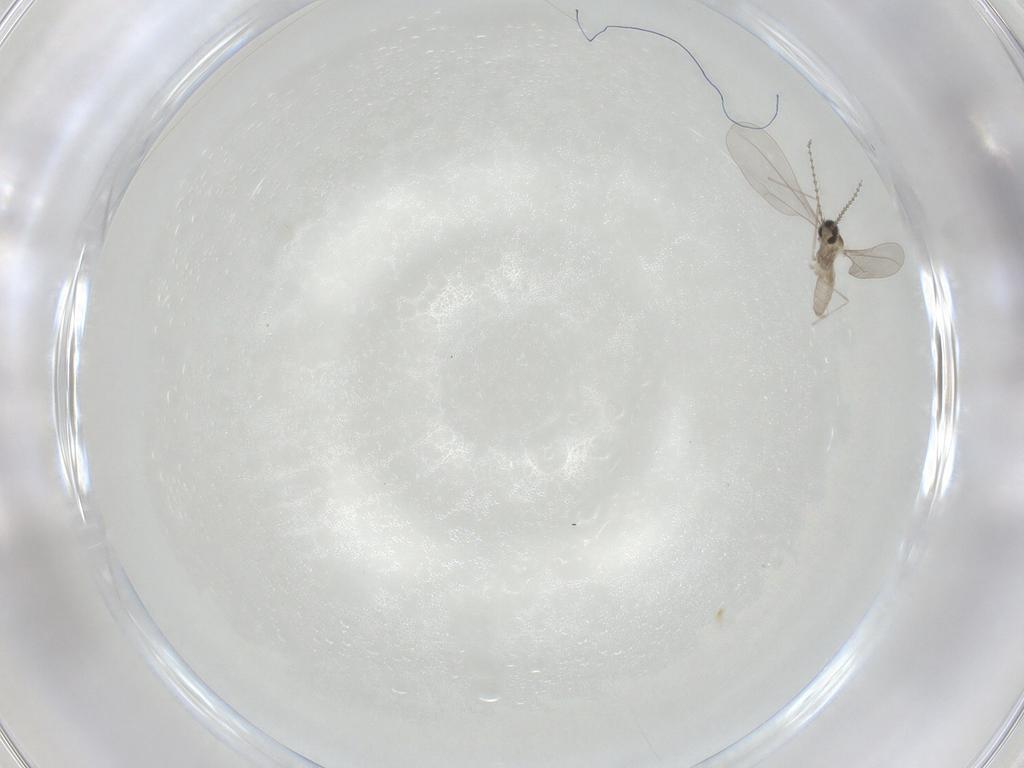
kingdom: Animalia
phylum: Arthropoda
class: Insecta
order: Diptera
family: Cecidomyiidae
